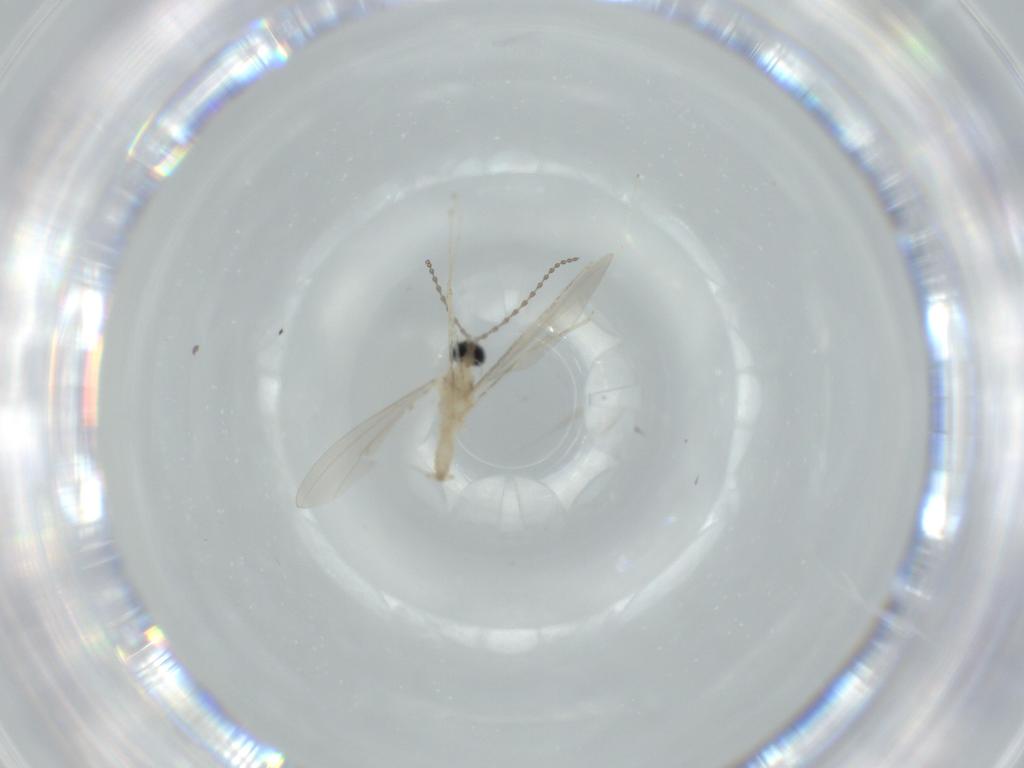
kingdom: Animalia
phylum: Arthropoda
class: Insecta
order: Diptera
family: Cecidomyiidae
